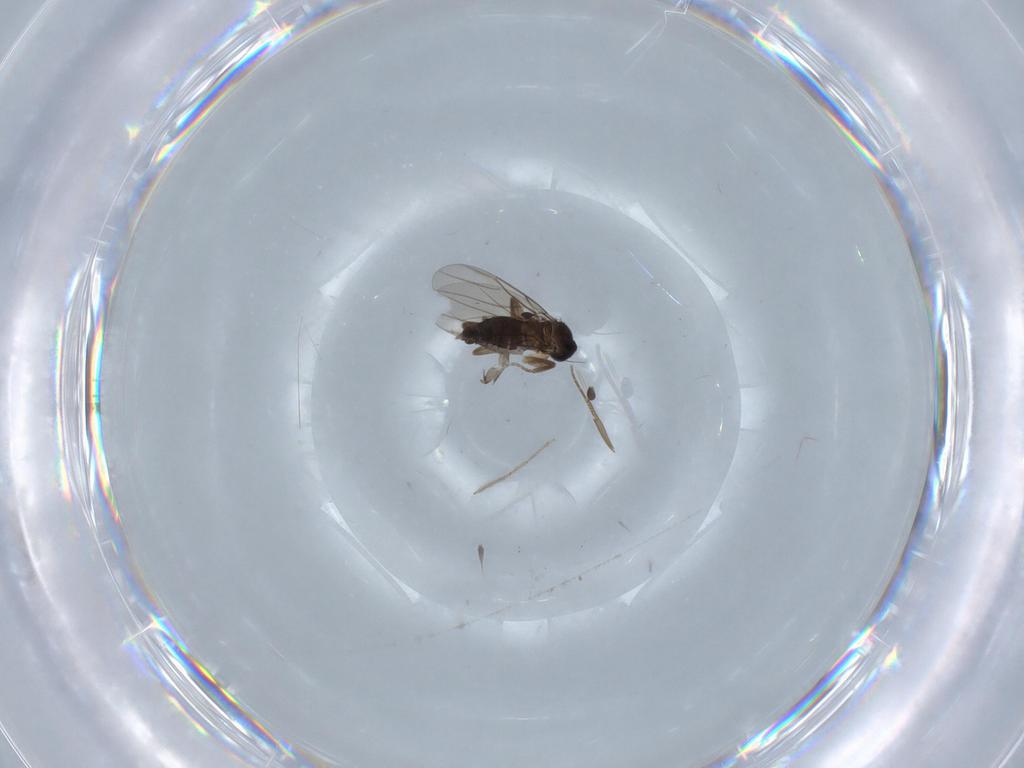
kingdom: Animalia
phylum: Arthropoda
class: Insecta
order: Diptera
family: Phoridae
